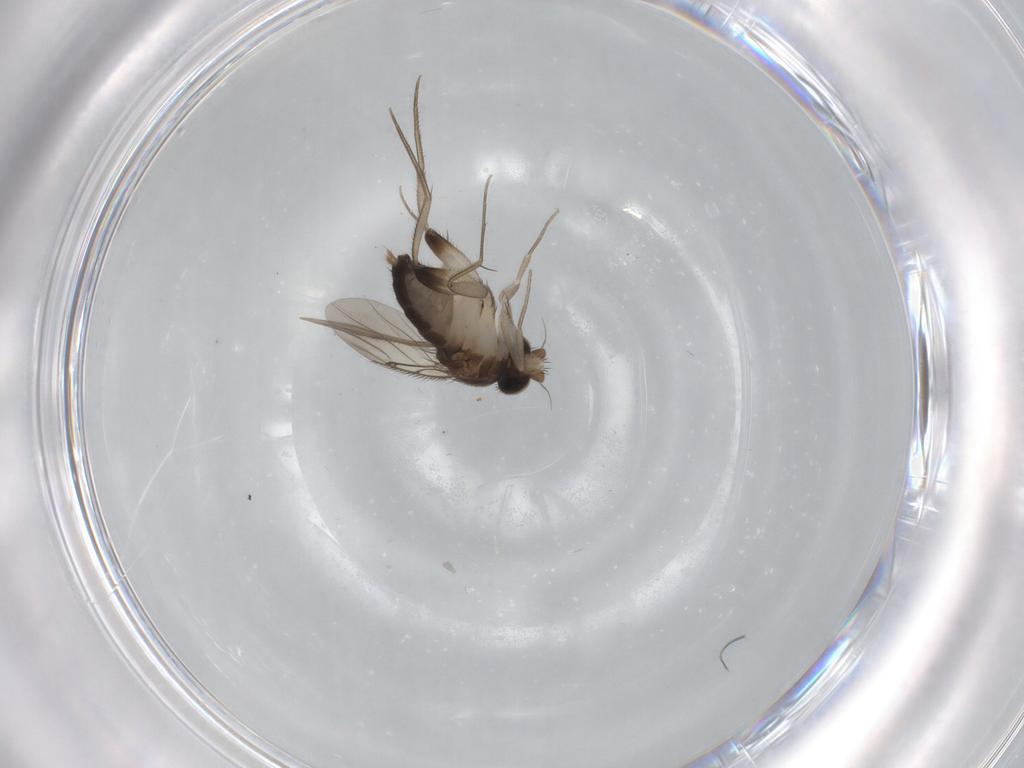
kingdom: Animalia
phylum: Arthropoda
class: Insecta
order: Diptera
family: Phoridae
